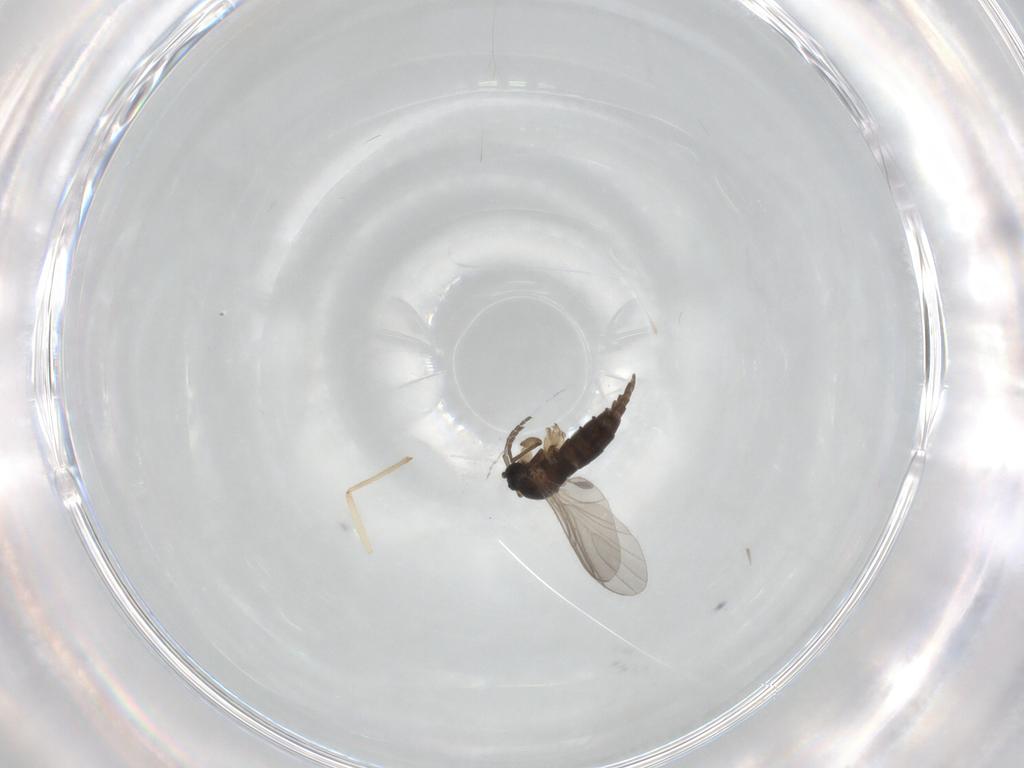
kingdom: Animalia
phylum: Arthropoda
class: Insecta
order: Diptera
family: Sciaridae
